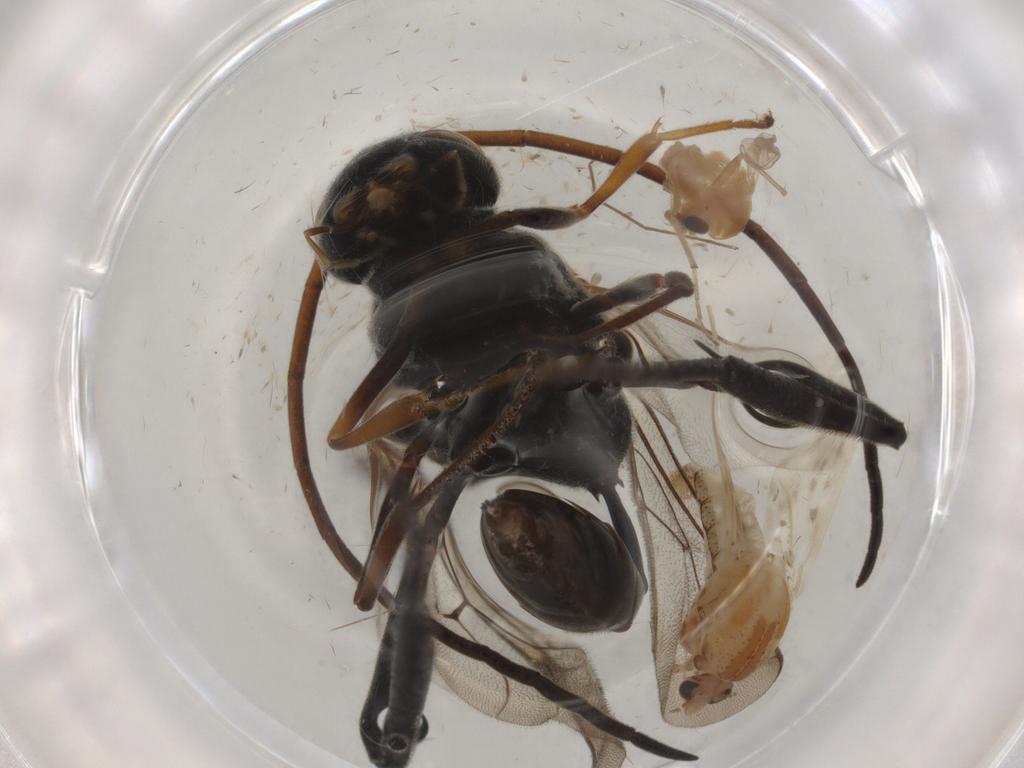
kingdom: Animalia
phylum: Arthropoda
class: Insecta
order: Diptera
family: Chaoboridae
